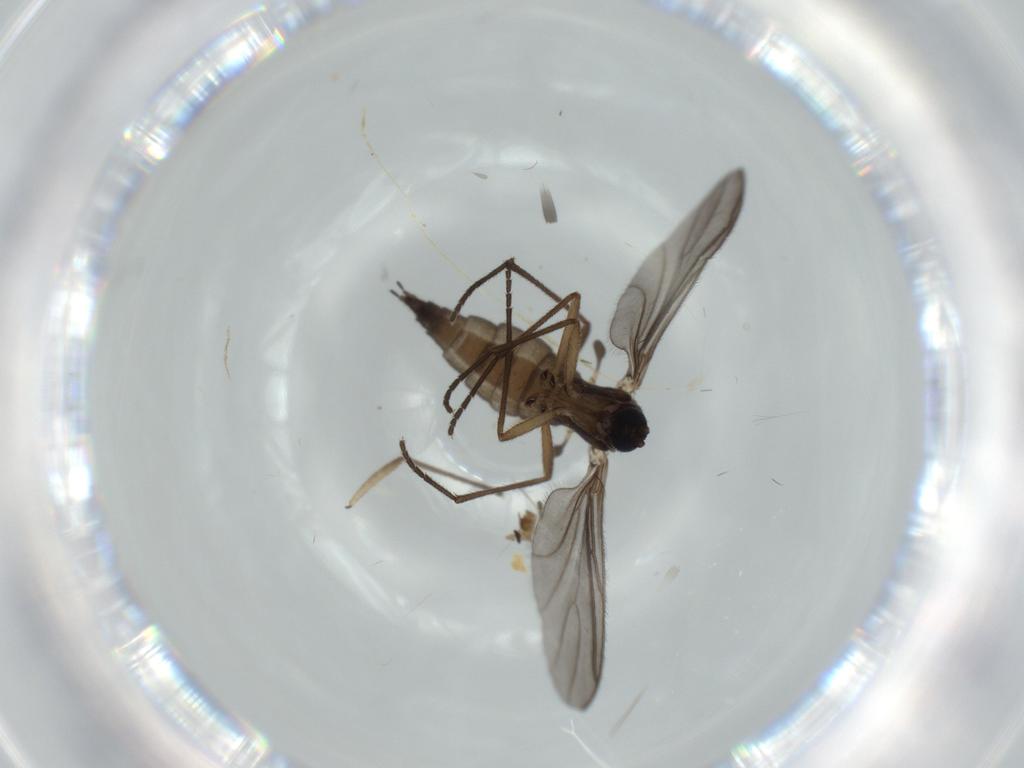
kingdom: Animalia
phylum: Arthropoda
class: Insecta
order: Diptera
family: Sciaridae
